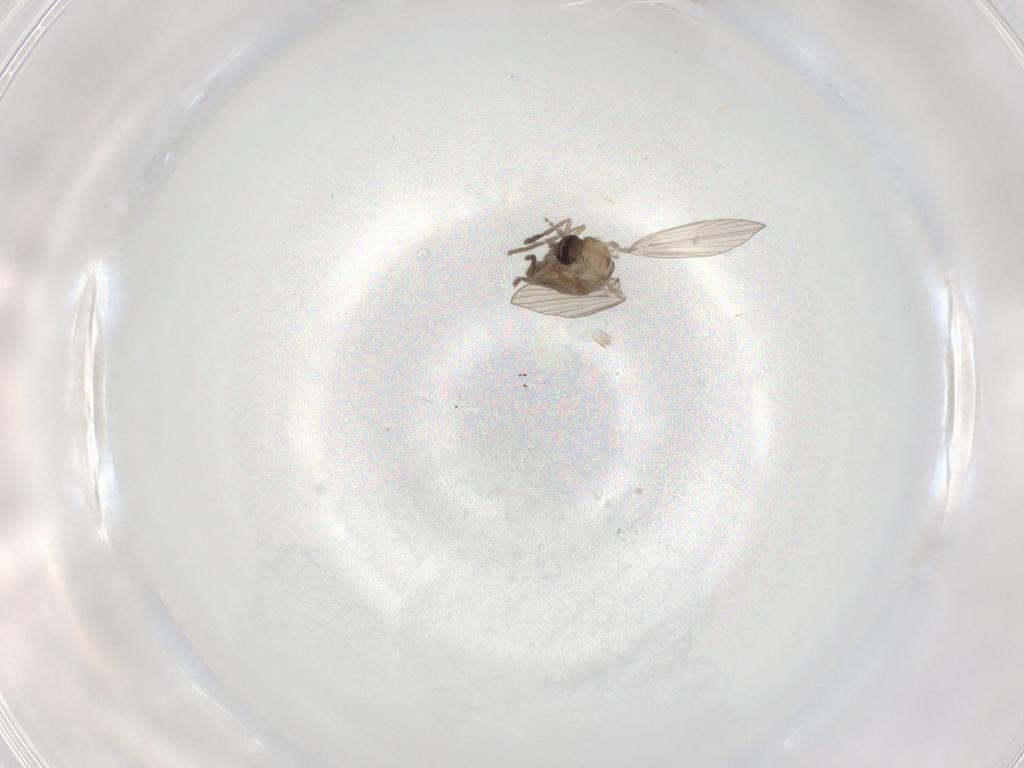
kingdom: Animalia
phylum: Arthropoda
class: Insecta
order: Diptera
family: Psychodidae
